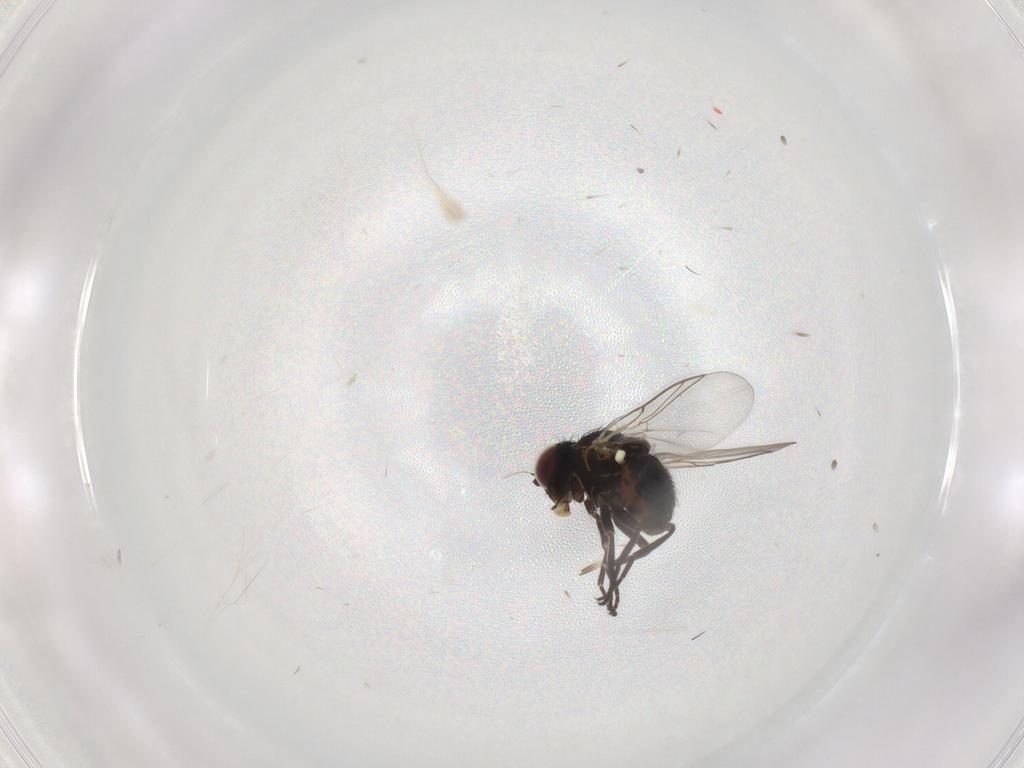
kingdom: Animalia
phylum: Arthropoda
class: Insecta
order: Diptera
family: Agromyzidae
